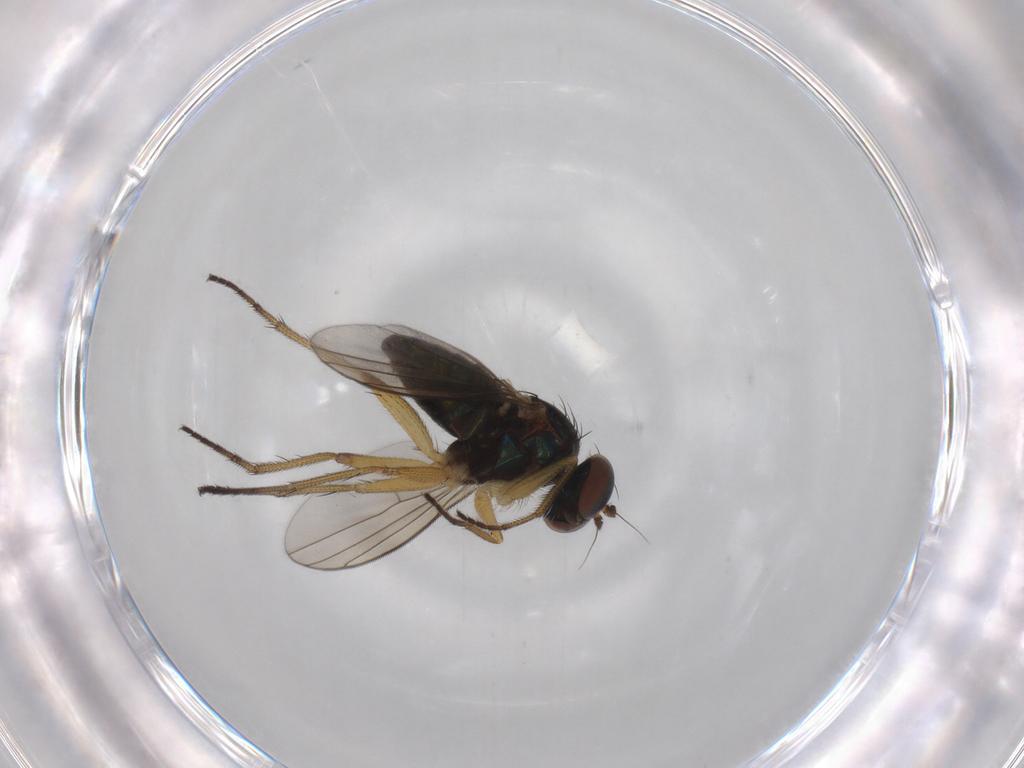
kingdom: Animalia
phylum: Arthropoda
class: Insecta
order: Diptera
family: Dolichopodidae
